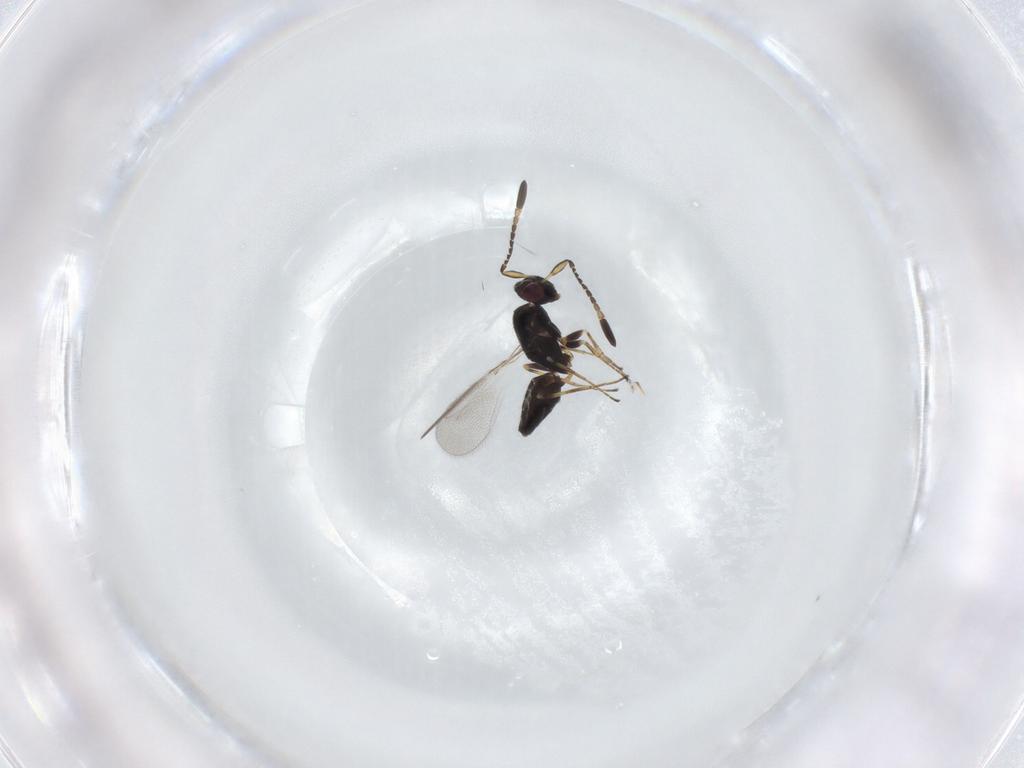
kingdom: Animalia
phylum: Arthropoda
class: Insecta
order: Hymenoptera
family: Mymaridae
